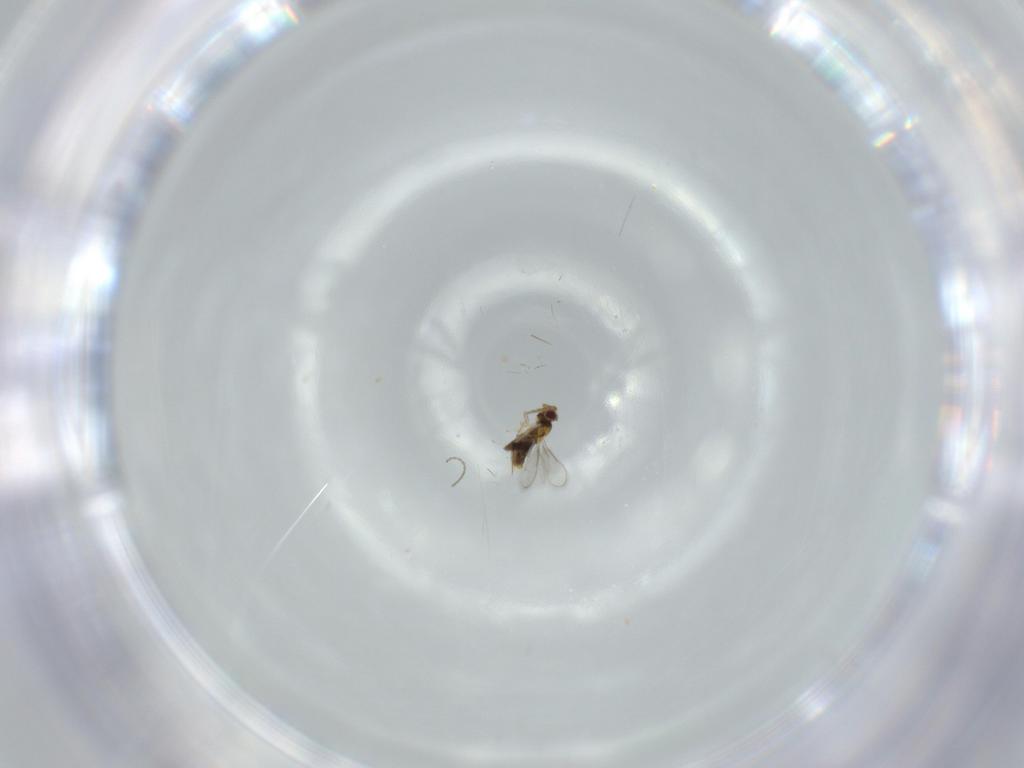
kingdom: Animalia
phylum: Arthropoda
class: Insecta
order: Hymenoptera
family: Aphelinidae
